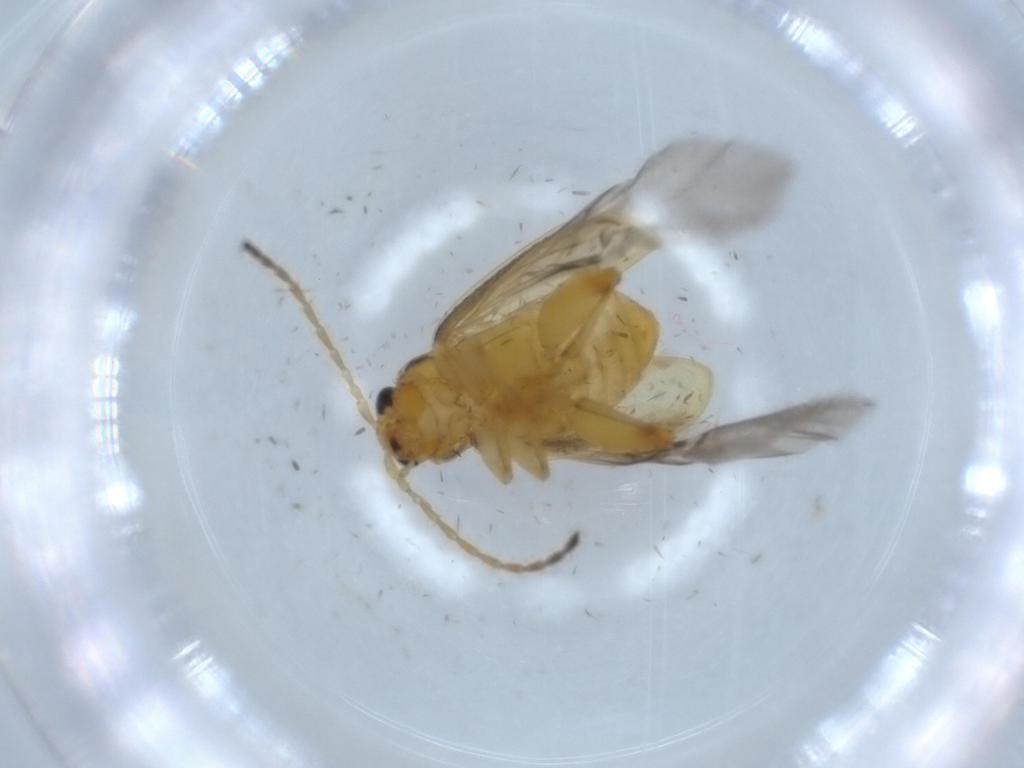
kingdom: Animalia
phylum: Arthropoda
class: Insecta
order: Coleoptera
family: Chrysomelidae
